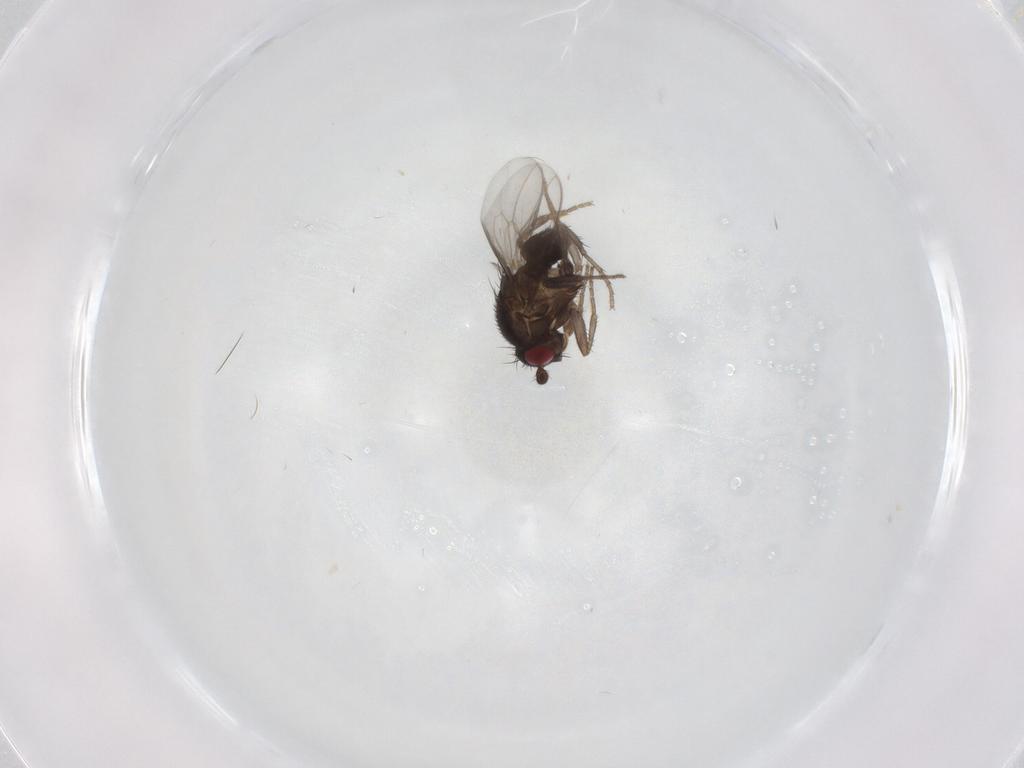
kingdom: Animalia
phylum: Arthropoda
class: Insecta
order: Diptera
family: Sphaeroceridae
